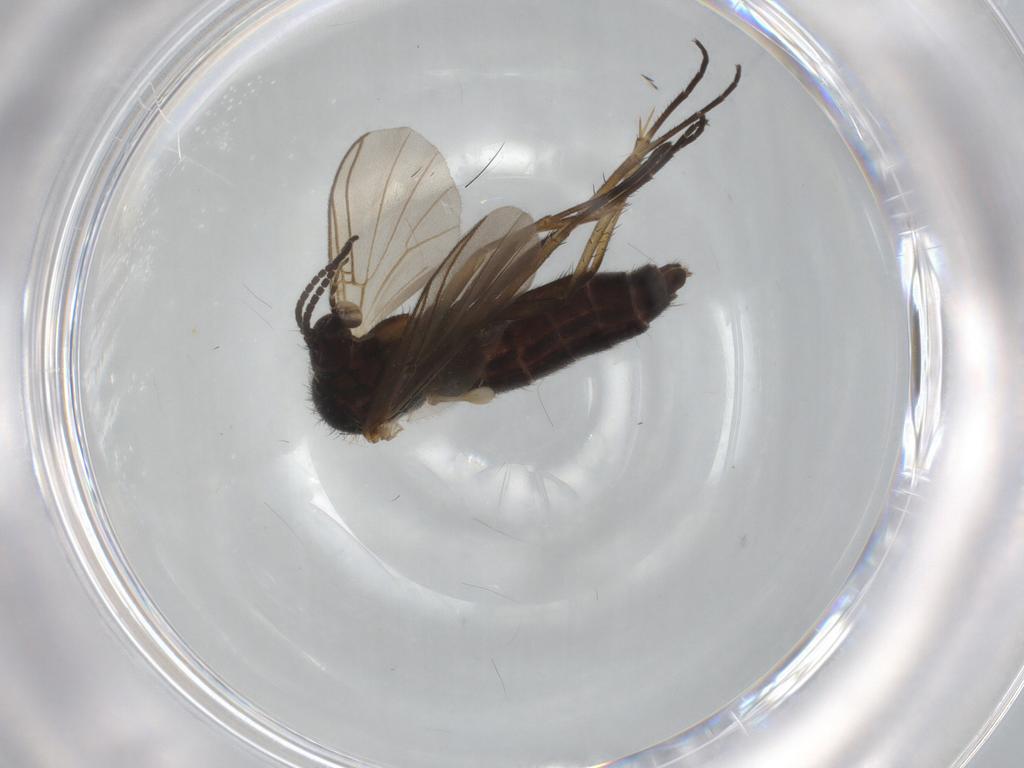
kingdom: Animalia
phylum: Arthropoda
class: Insecta
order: Diptera
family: Mycetophilidae
